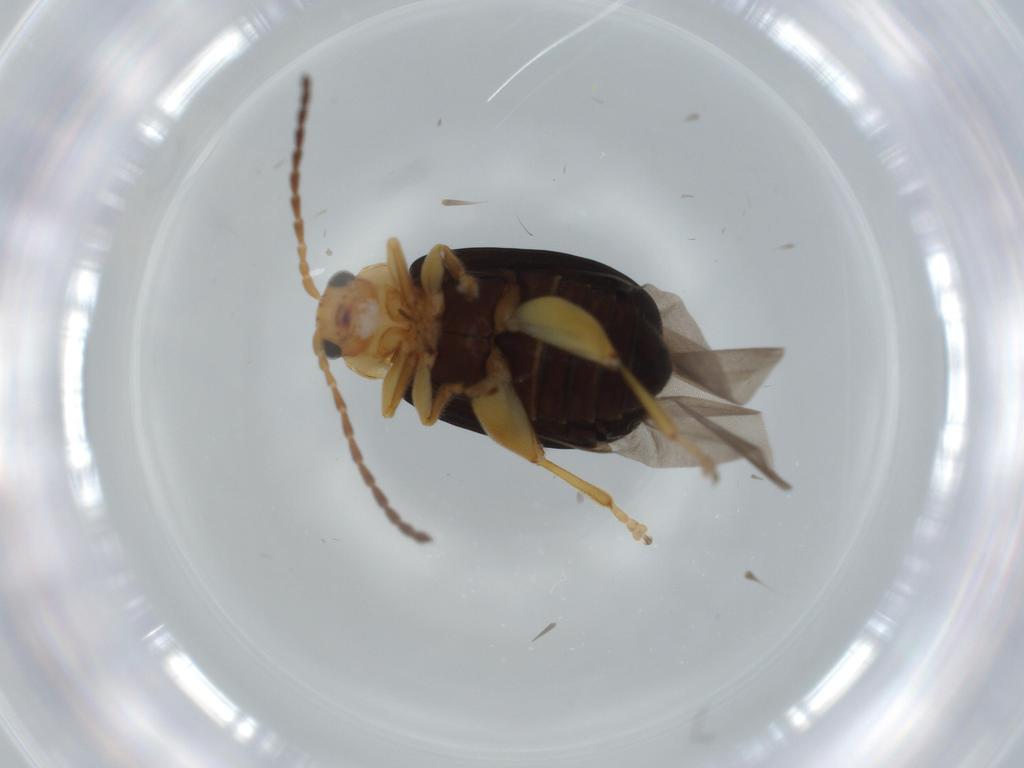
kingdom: Animalia
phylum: Arthropoda
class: Insecta
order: Coleoptera
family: Chrysomelidae
